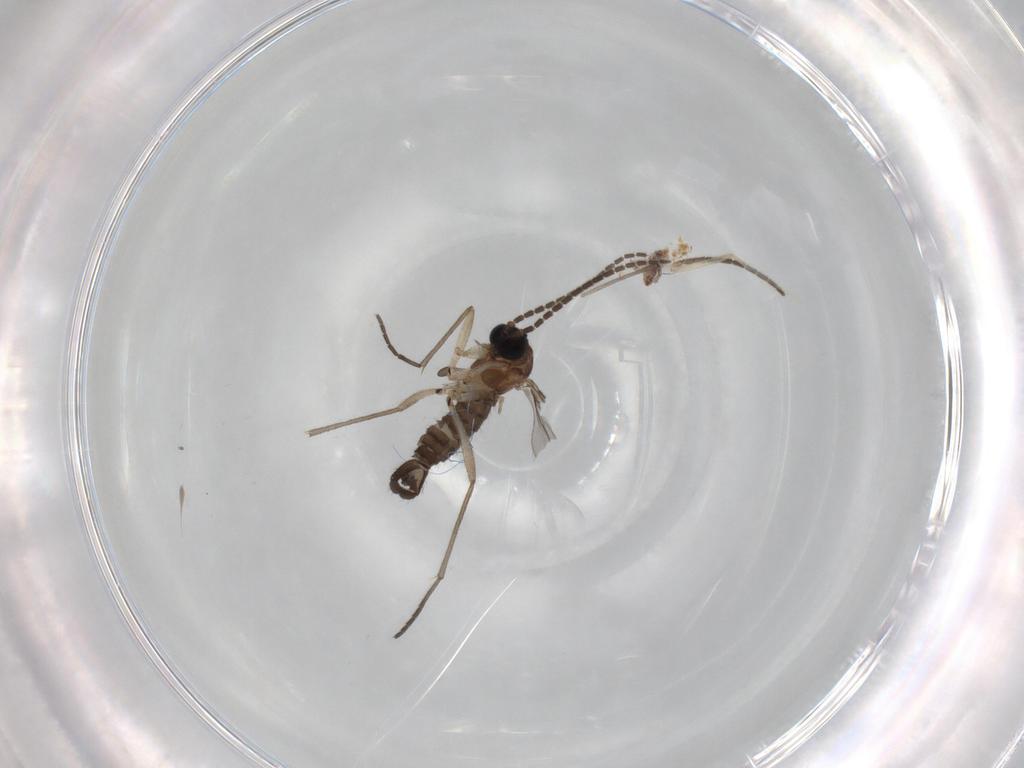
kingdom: Animalia
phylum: Arthropoda
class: Insecta
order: Diptera
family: Sciaridae
